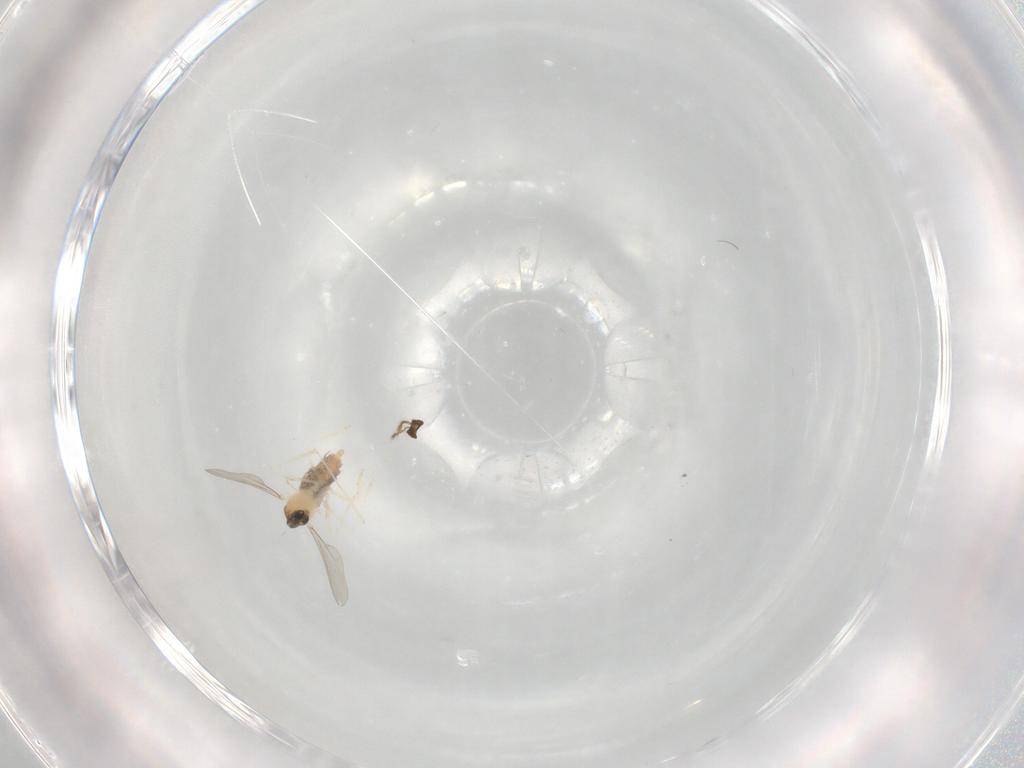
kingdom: Animalia
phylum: Arthropoda
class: Insecta
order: Diptera
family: Psychodidae
